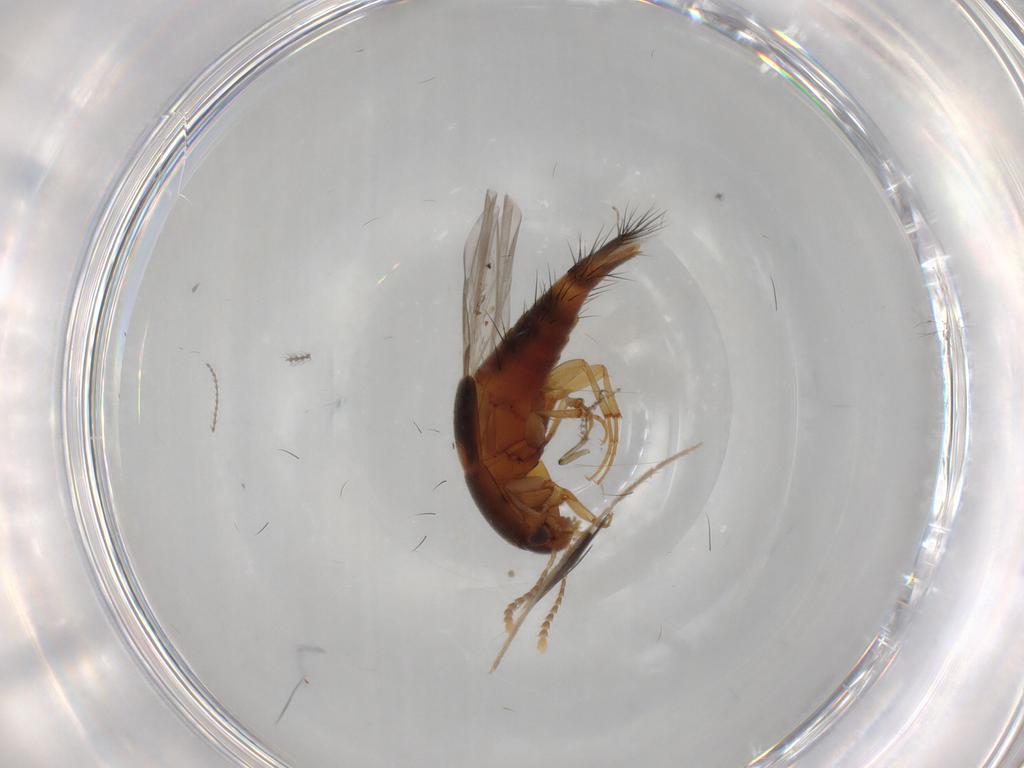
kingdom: Animalia
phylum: Arthropoda
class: Insecta
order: Coleoptera
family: Staphylinidae
